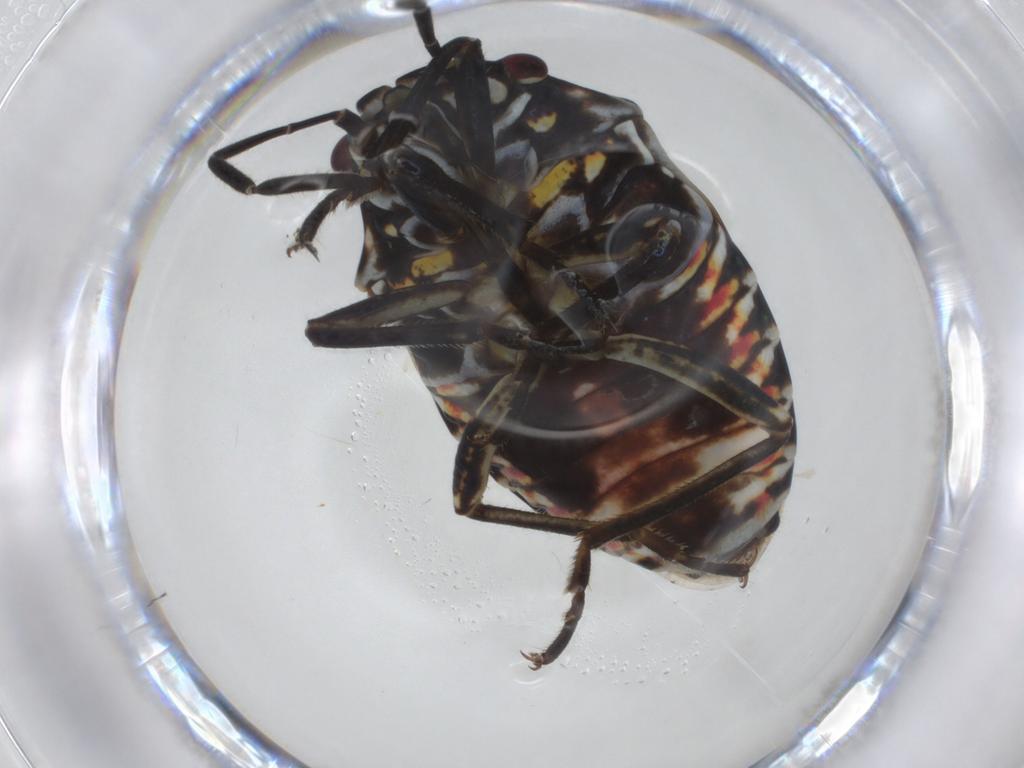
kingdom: Animalia
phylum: Arthropoda
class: Insecta
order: Hemiptera
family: Pentatomidae
